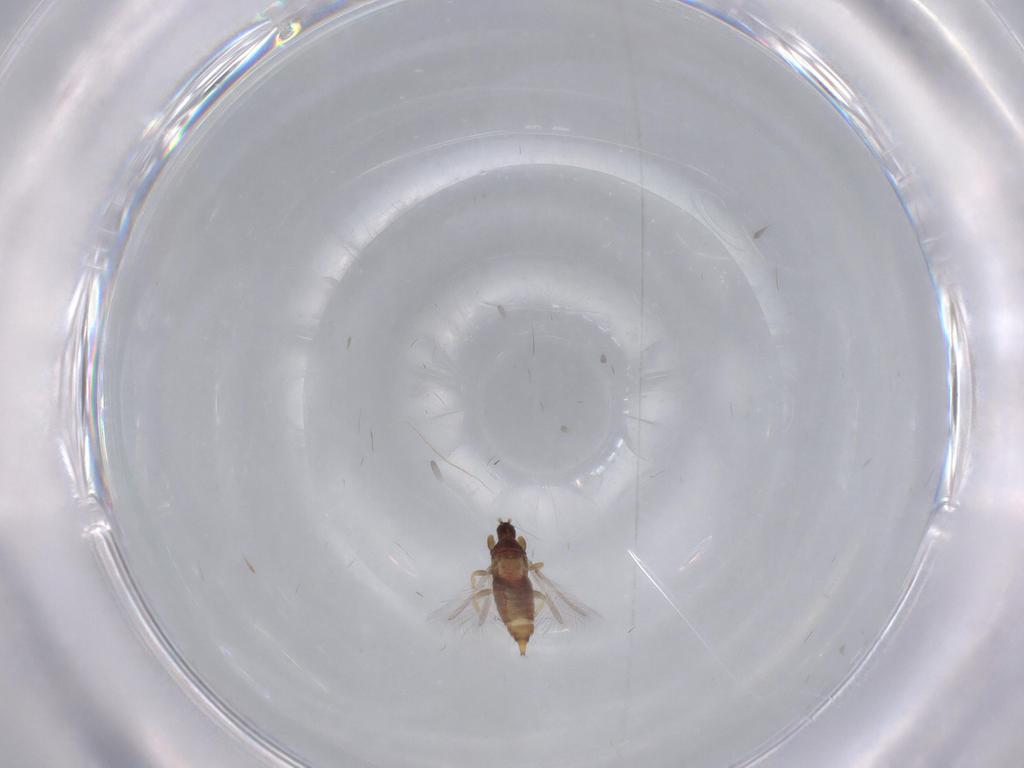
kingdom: Animalia
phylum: Arthropoda
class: Insecta
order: Thysanoptera
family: Phlaeothripidae
